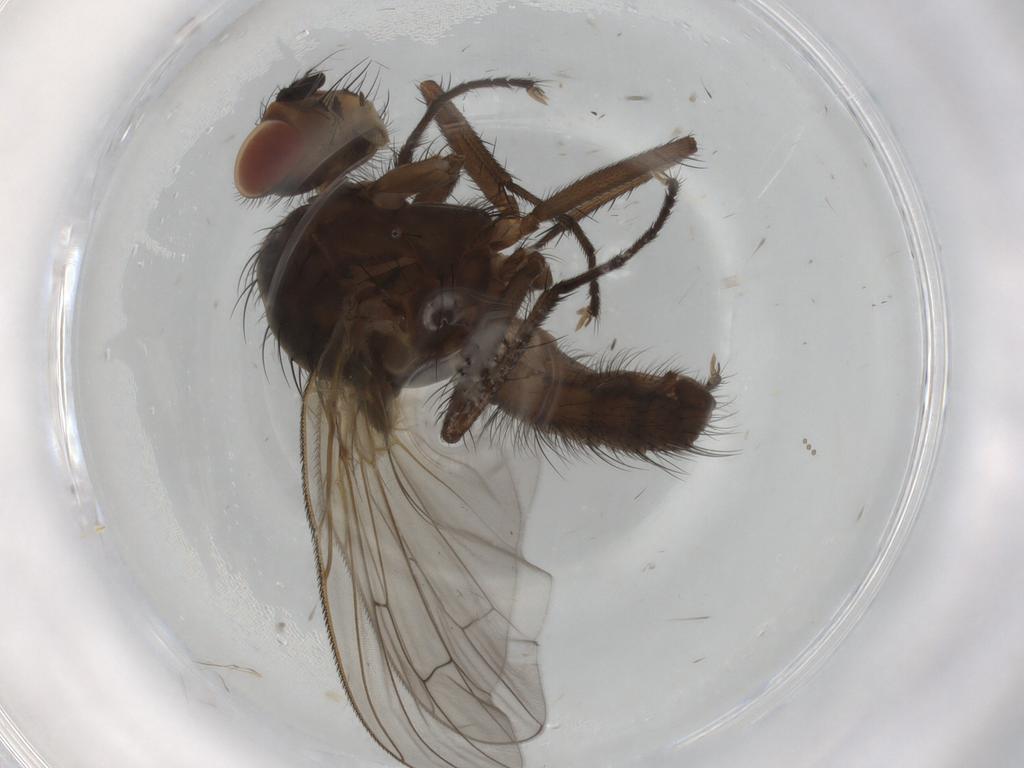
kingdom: Animalia
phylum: Arthropoda
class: Insecta
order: Diptera
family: Anthomyiidae
